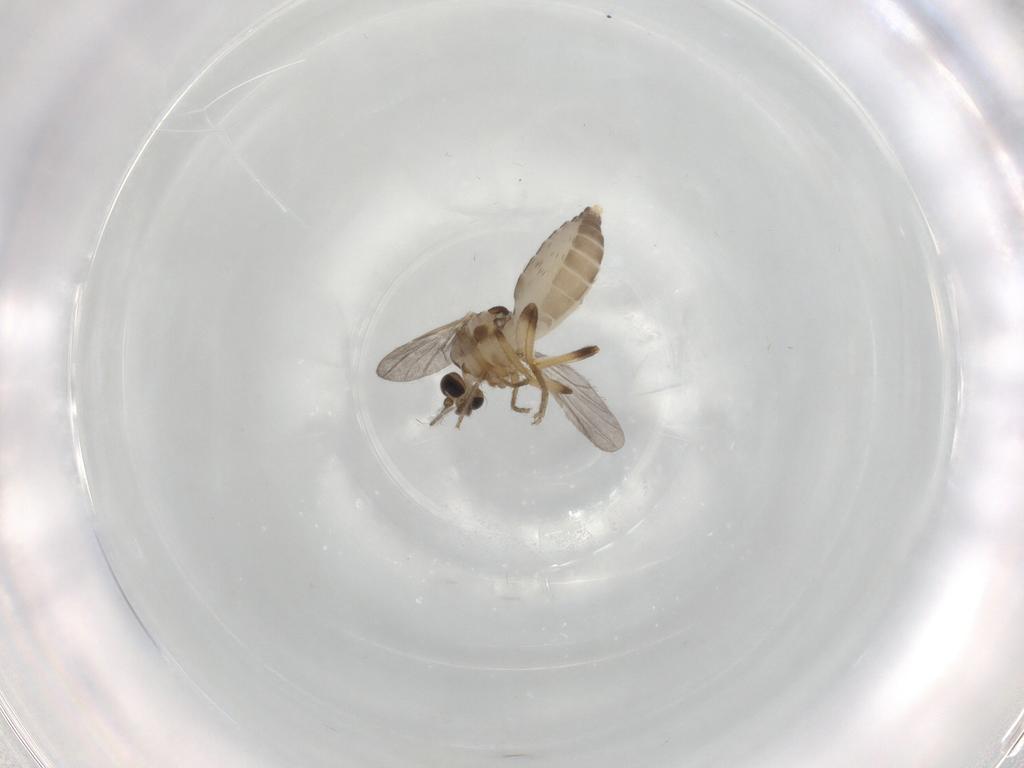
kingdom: Animalia
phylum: Arthropoda
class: Insecta
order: Diptera
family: Ceratopogonidae
